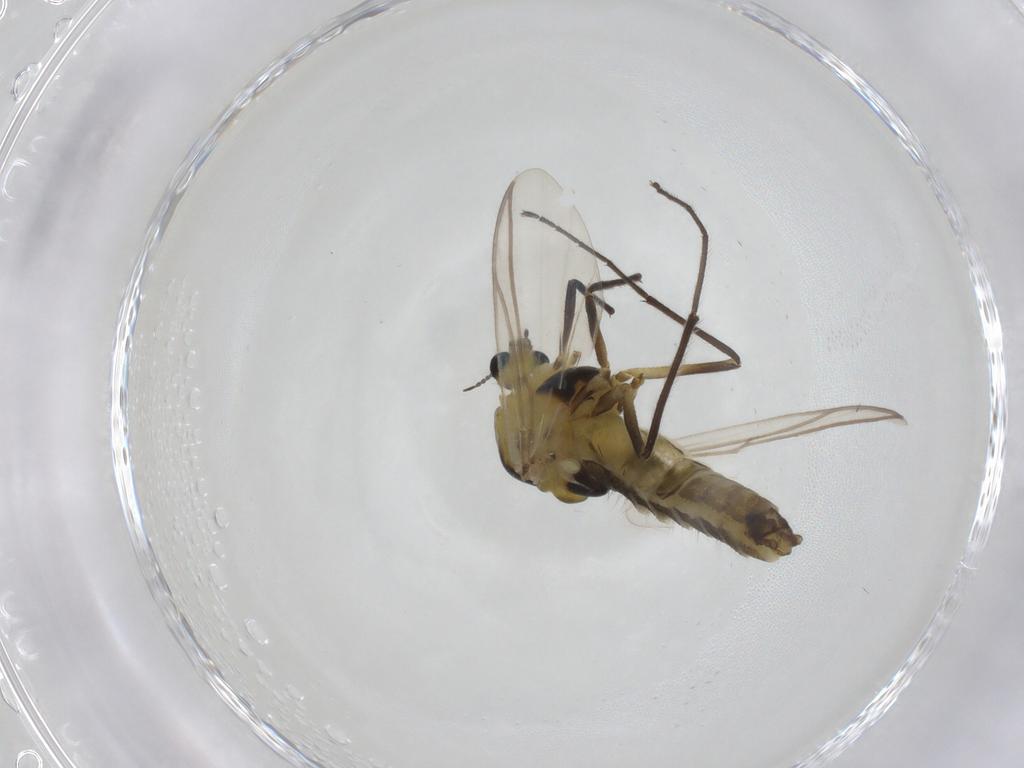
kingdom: Animalia
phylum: Arthropoda
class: Insecta
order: Diptera
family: Chironomidae
